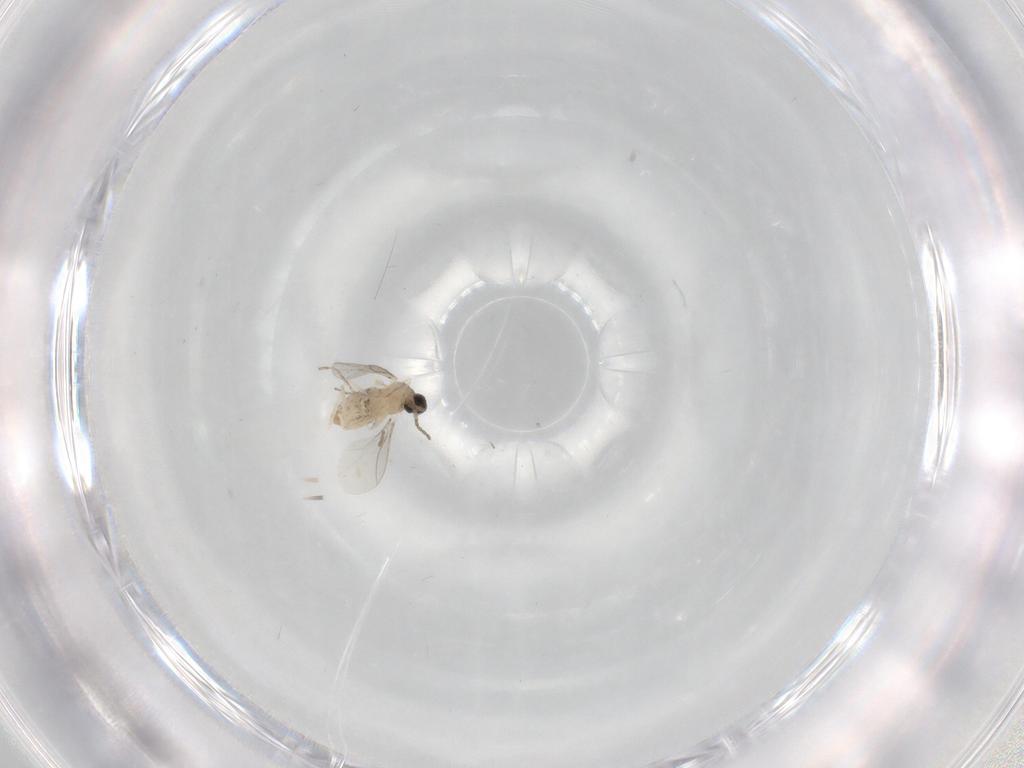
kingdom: Animalia
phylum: Arthropoda
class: Insecta
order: Diptera
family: Cecidomyiidae
